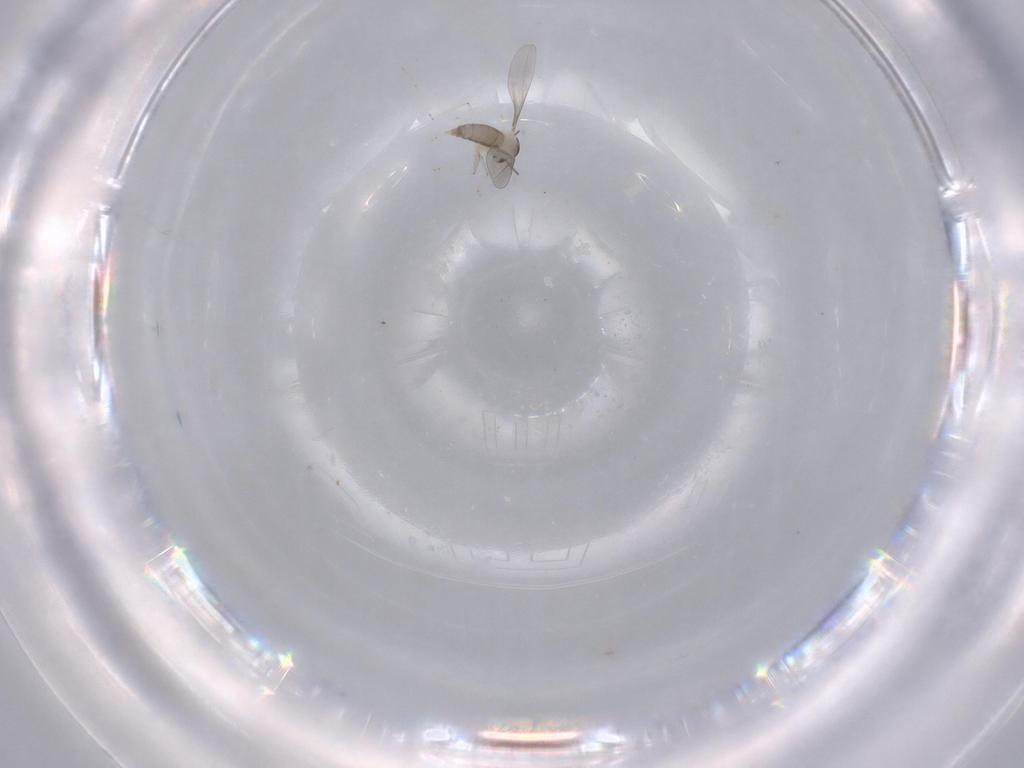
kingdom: Animalia
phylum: Arthropoda
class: Insecta
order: Diptera
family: Cecidomyiidae
